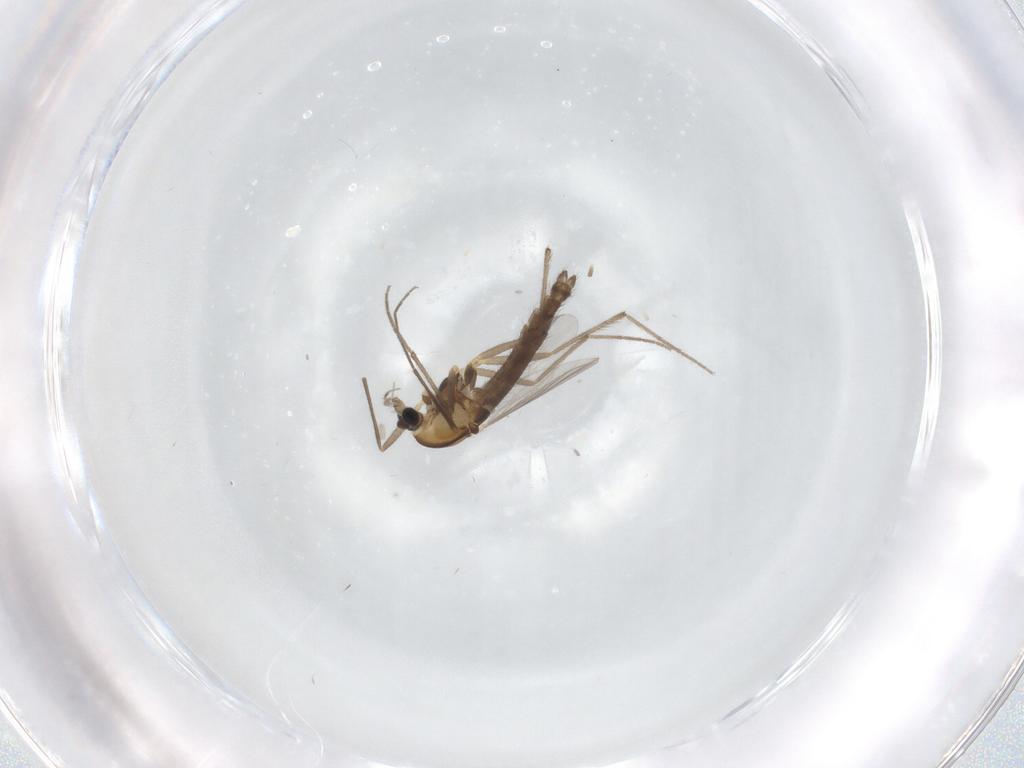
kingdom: Animalia
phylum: Arthropoda
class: Insecta
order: Diptera
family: Chironomidae
